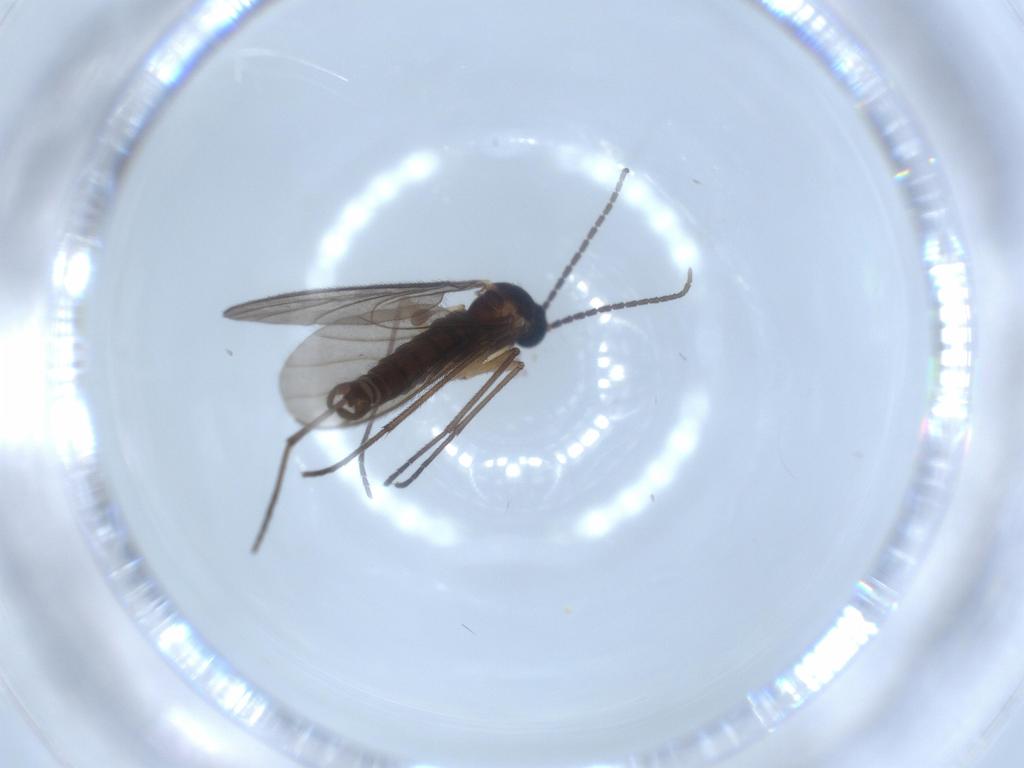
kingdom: Animalia
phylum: Arthropoda
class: Insecta
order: Diptera
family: Sciaridae
